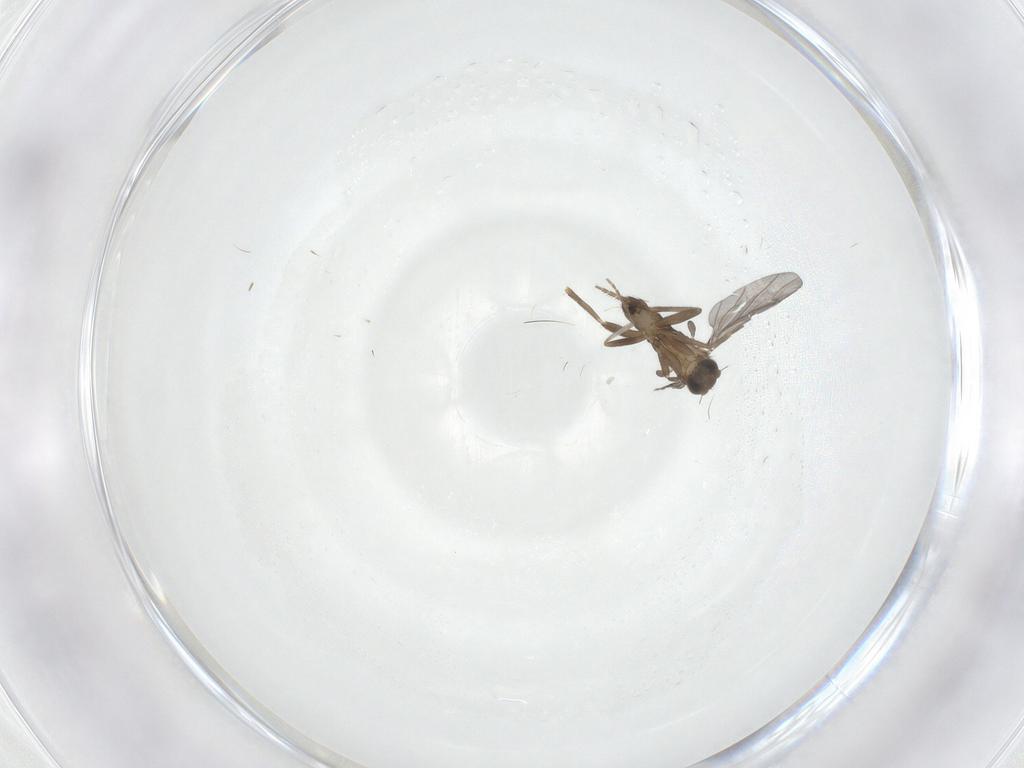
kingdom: Animalia
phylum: Arthropoda
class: Insecta
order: Diptera
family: Phoridae
